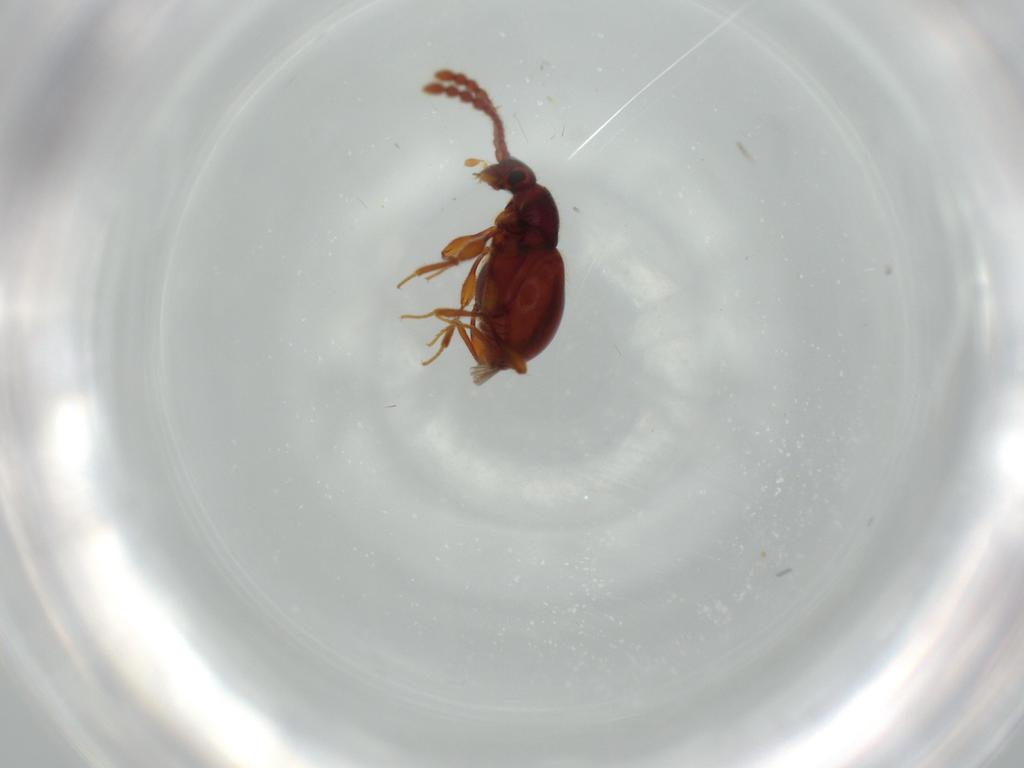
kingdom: Animalia
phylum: Arthropoda
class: Insecta
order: Coleoptera
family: Staphylinidae
